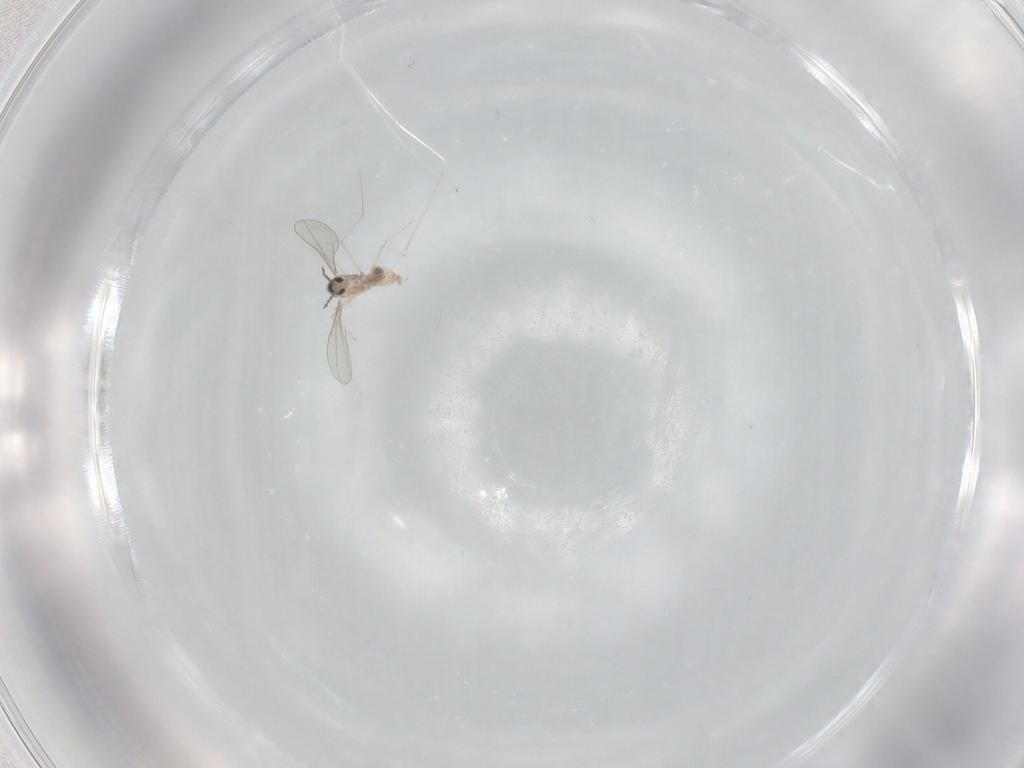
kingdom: Animalia
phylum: Arthropoda
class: Insecta
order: Diptera
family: Cecidomyiidae
